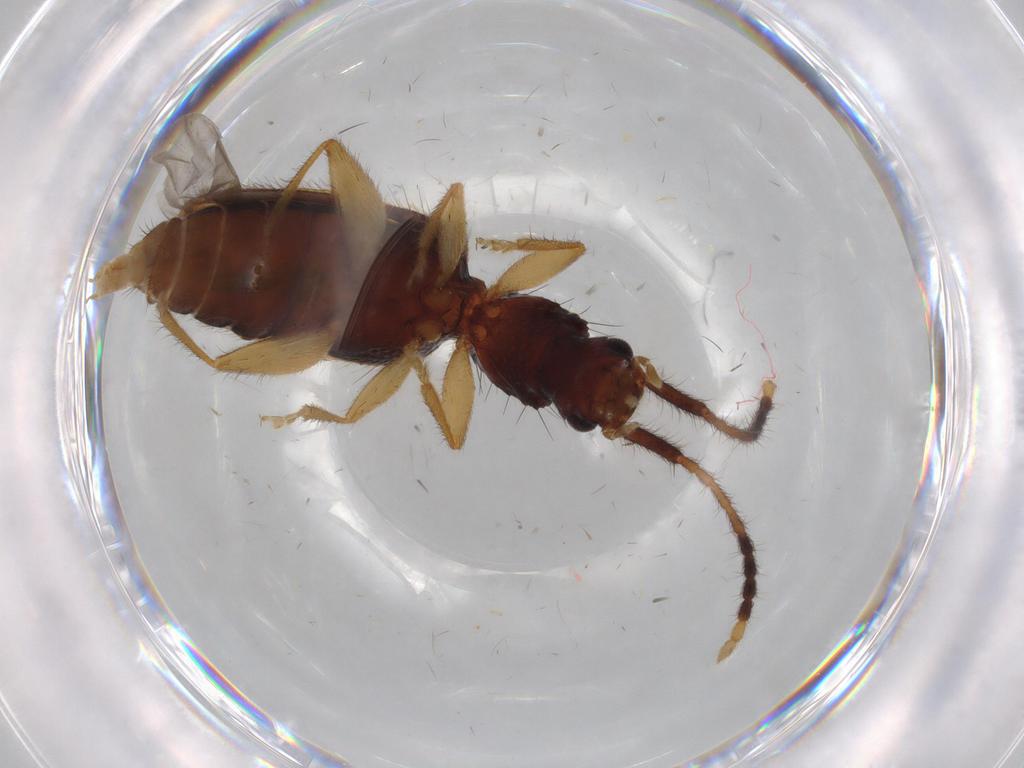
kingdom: Animalia
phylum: Arthropoda
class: Insecta
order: Coleoptera
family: Silvanidae
